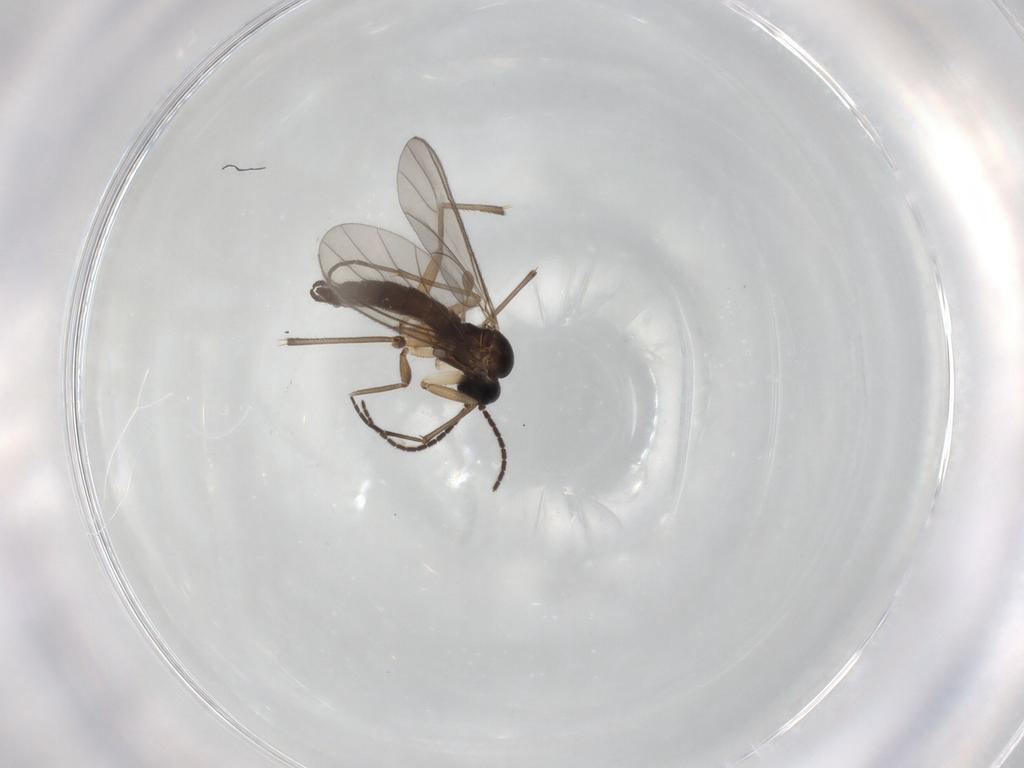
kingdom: Animalia
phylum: Arthropoda
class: Insecta
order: Diptera
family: Sciaridae
